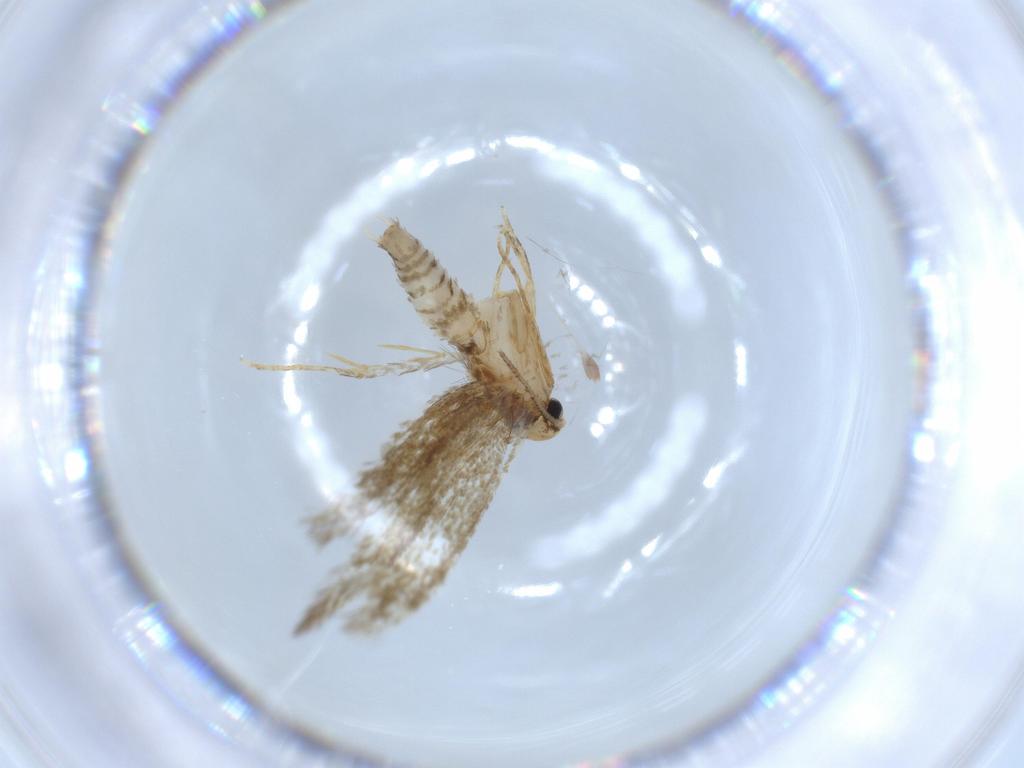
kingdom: Animalia
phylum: Arthropoda
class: Insecta
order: Lepidoptera
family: Tineidae
